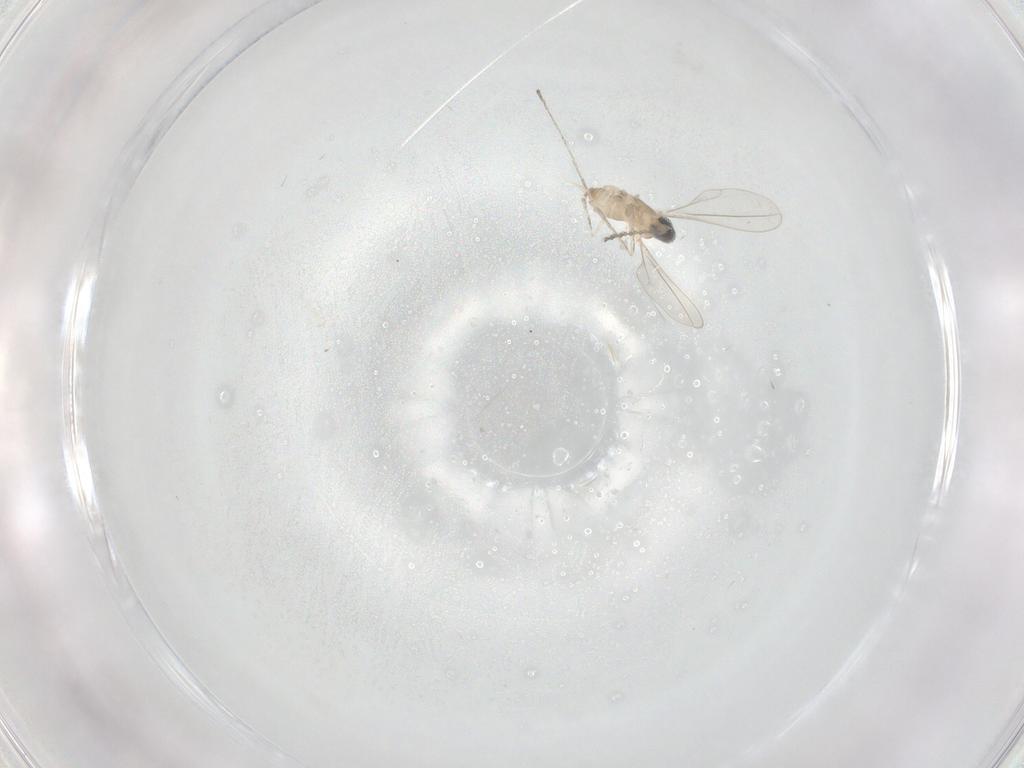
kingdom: Animalia
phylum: Arthropoda
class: Insecta
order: Diptera
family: Cecidomyiidae
